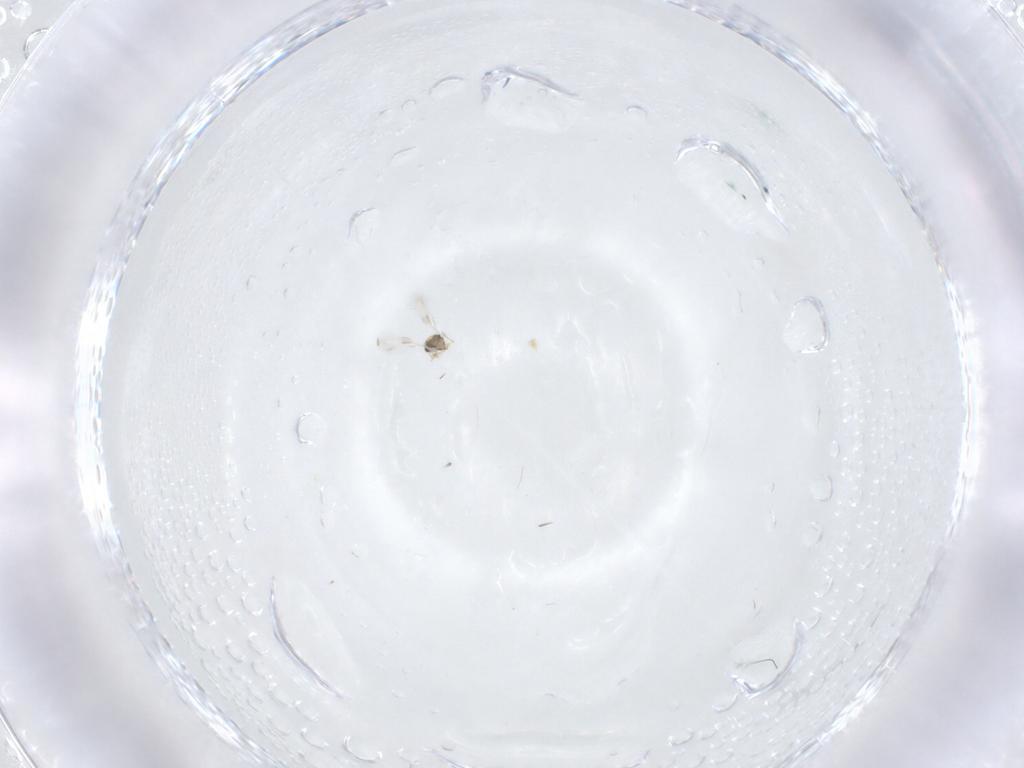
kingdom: Animalia
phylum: Arthropoda
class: Insecta
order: Hymenoptera
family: Aphelinidae
